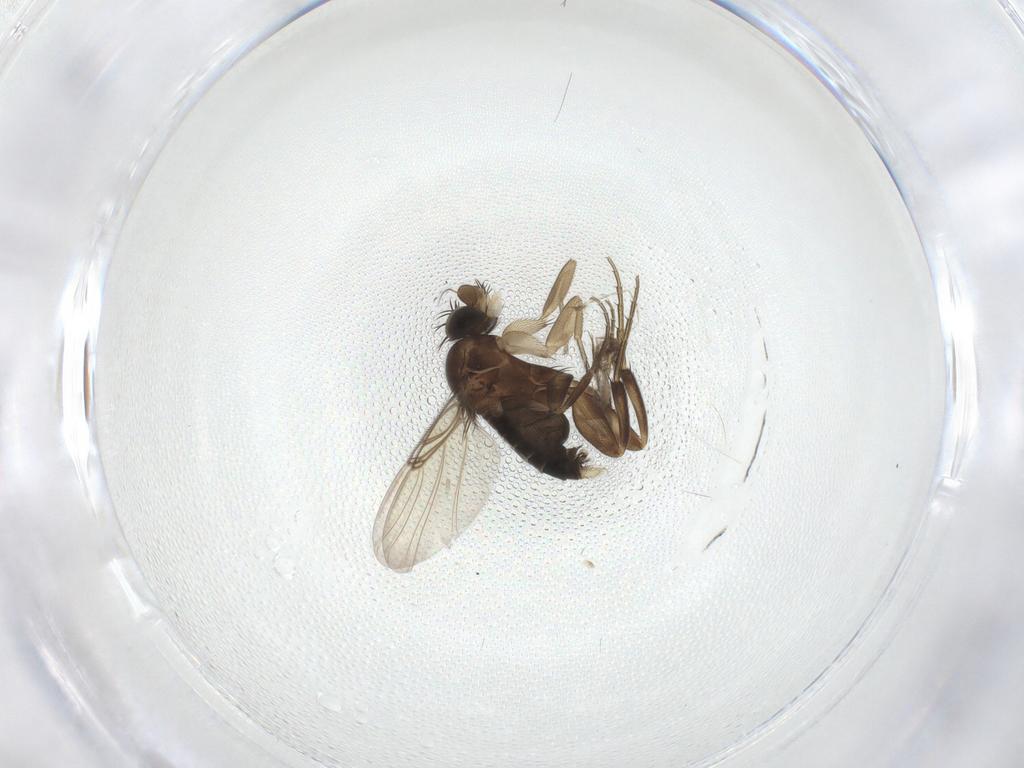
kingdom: Animalia
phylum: Arthropoda
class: Insecta
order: Diptera
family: Phoridae
